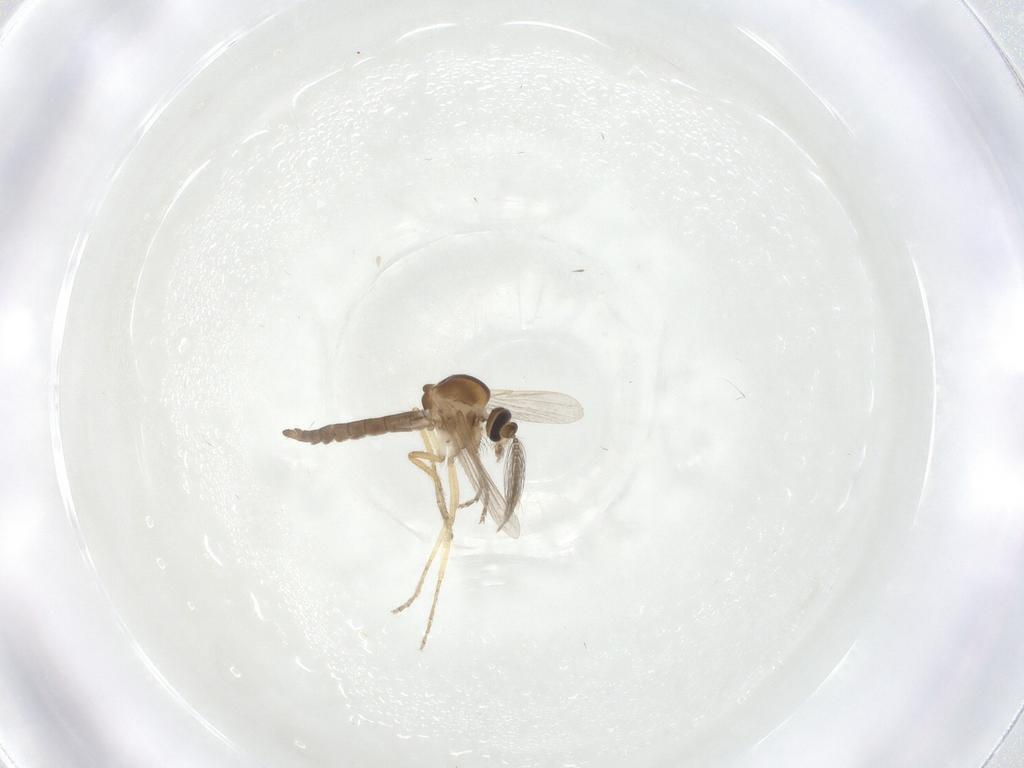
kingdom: Animalia
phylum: Arthropoda
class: Insecta
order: Diptera
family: Ceratopogonidae
